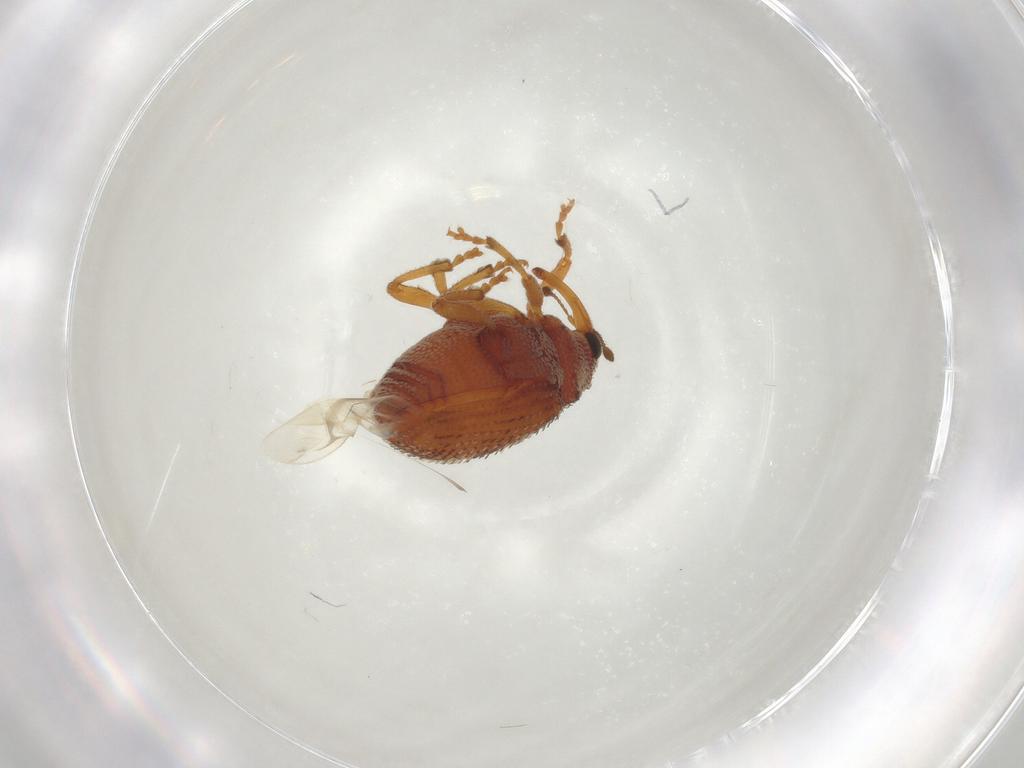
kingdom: Animalia
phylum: Arthropoda
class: Insecta
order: Coleoptera
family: Curculionidae
